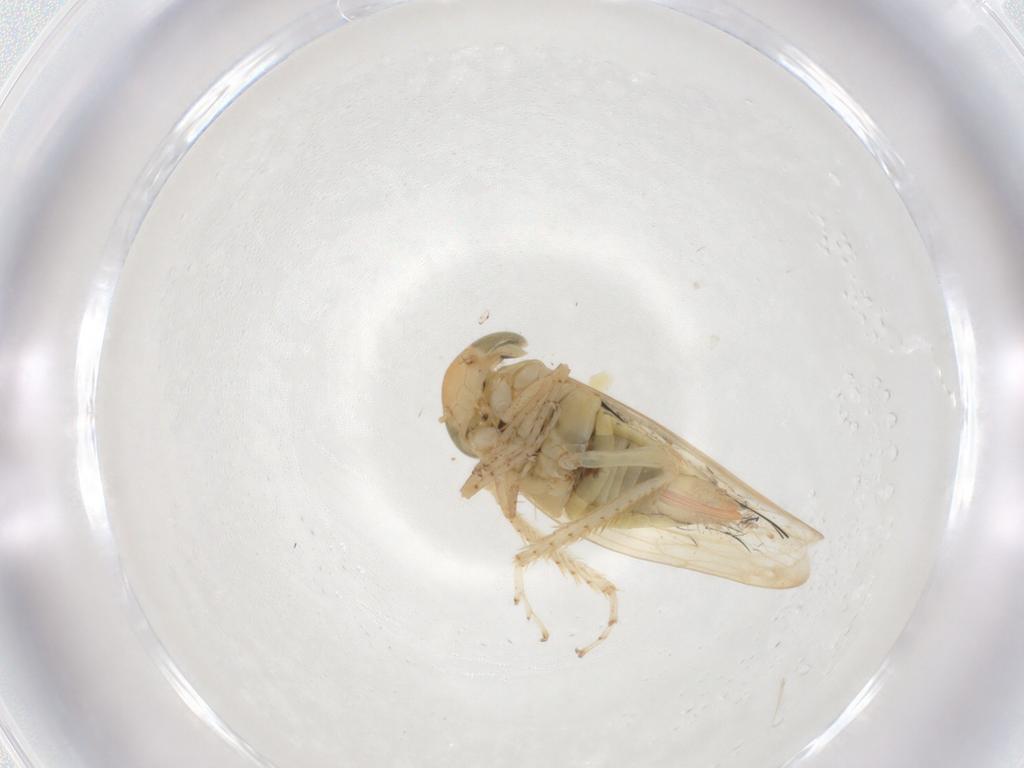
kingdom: Animalia
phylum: Arthropoda
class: Insecta
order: Hemiptera
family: Cicadellidae
